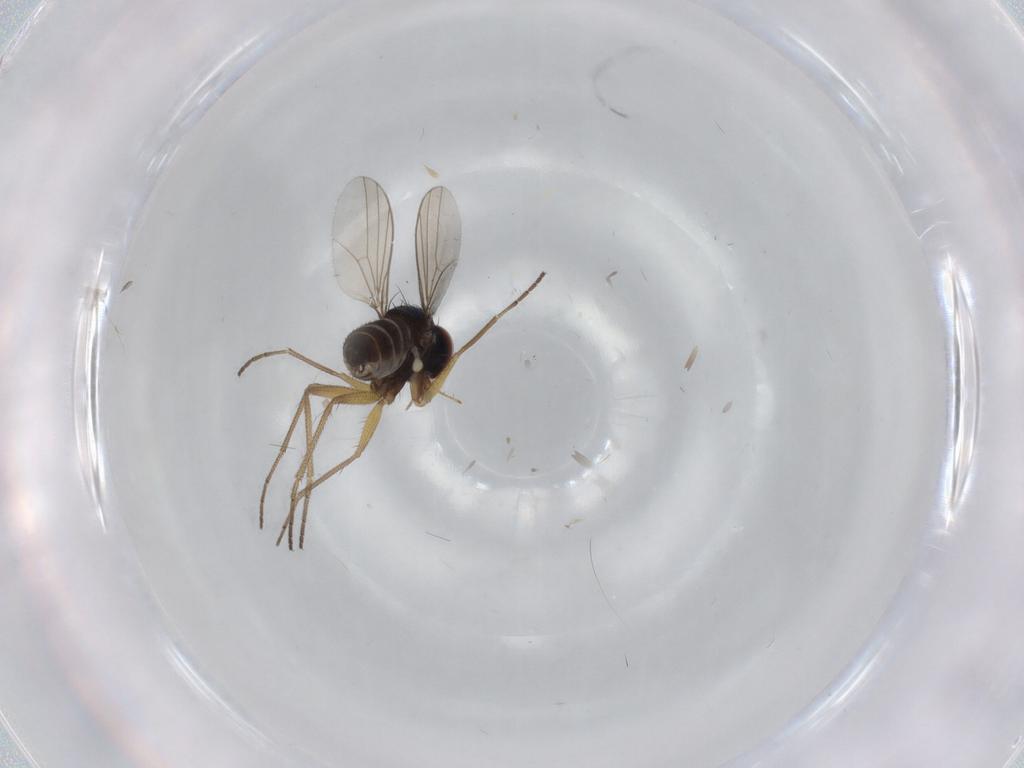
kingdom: Animalia
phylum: Arthropoda
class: Insecta
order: Diptera
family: Dolichopodidae
